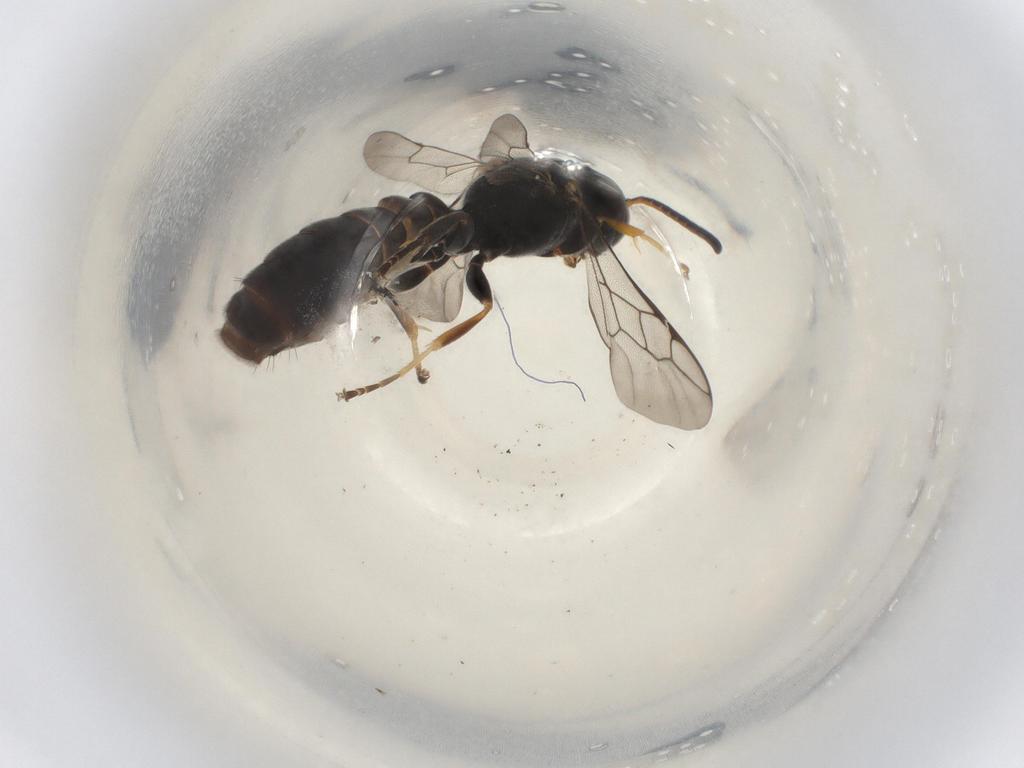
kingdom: Animalia
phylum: Arthropoda
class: Insecta
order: Hymenoptera
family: Crabronidae
